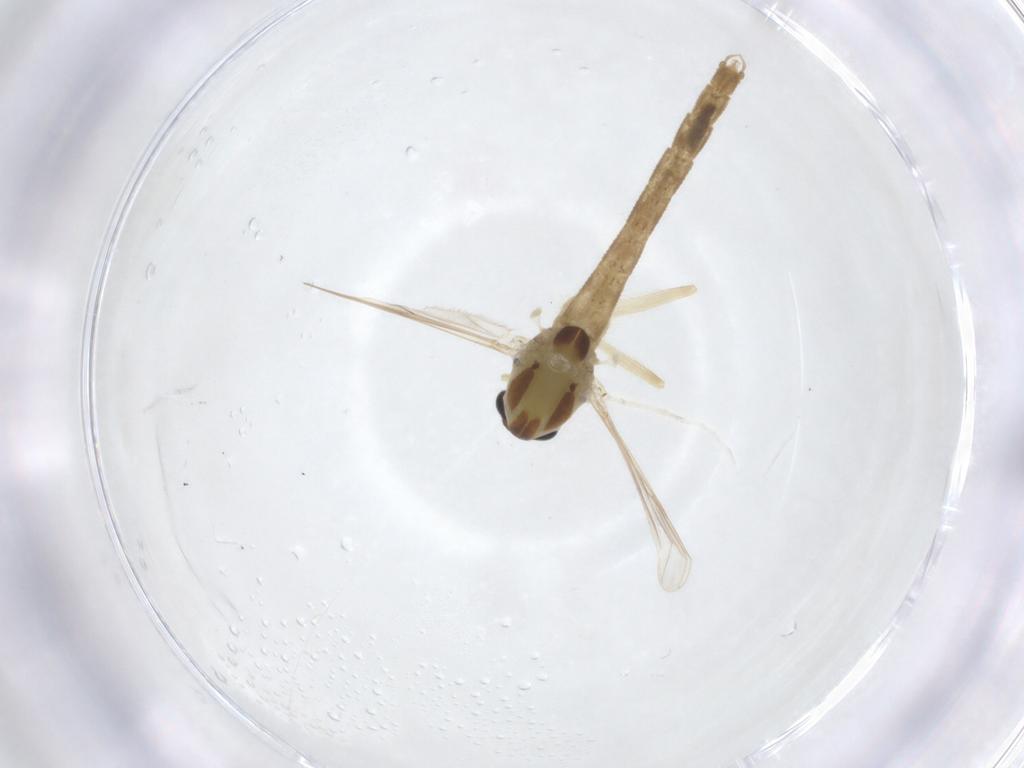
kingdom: Animalia
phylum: Arthropoda
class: Insecta
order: Diptera
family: Chironomidae
